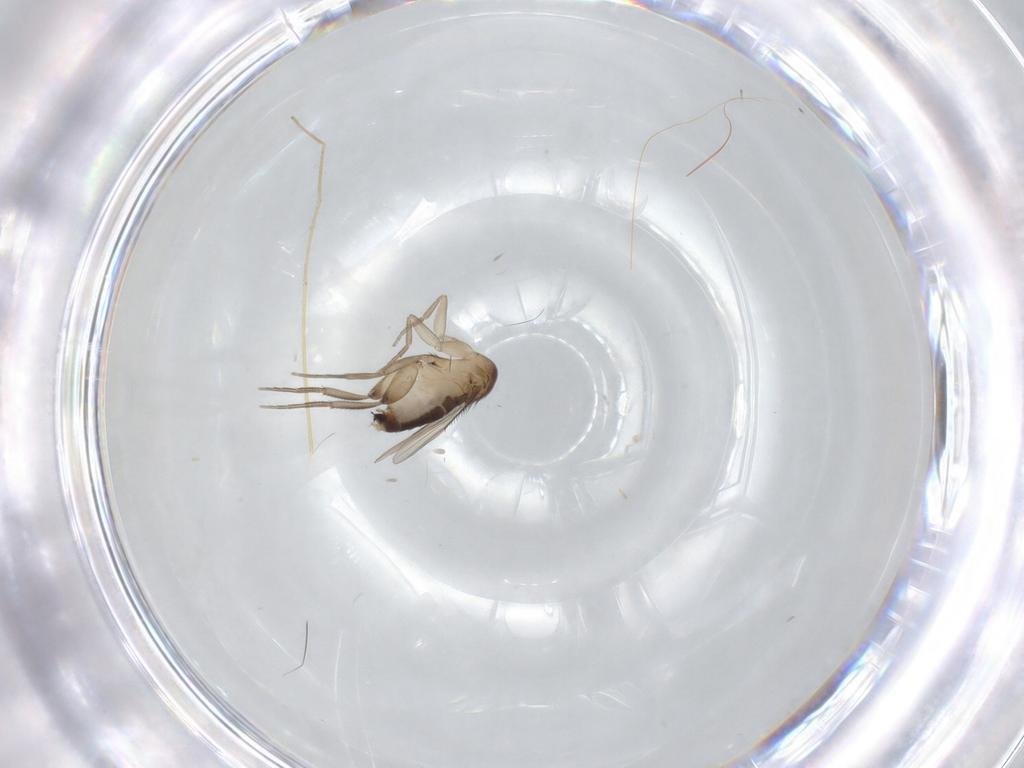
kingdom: Animalia
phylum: Arthropoda
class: Insecta
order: Diptera
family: Phoridae
